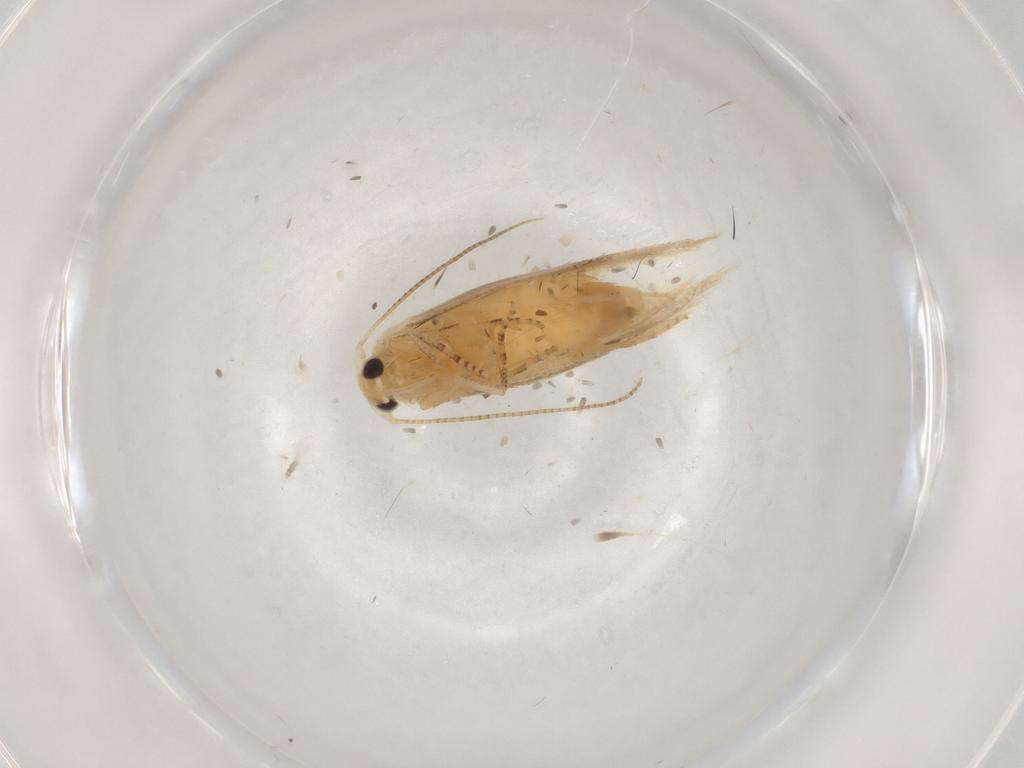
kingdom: Animalia
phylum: Arthropoda
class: Insecta
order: Lepidoptera
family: Bucculatricidae
